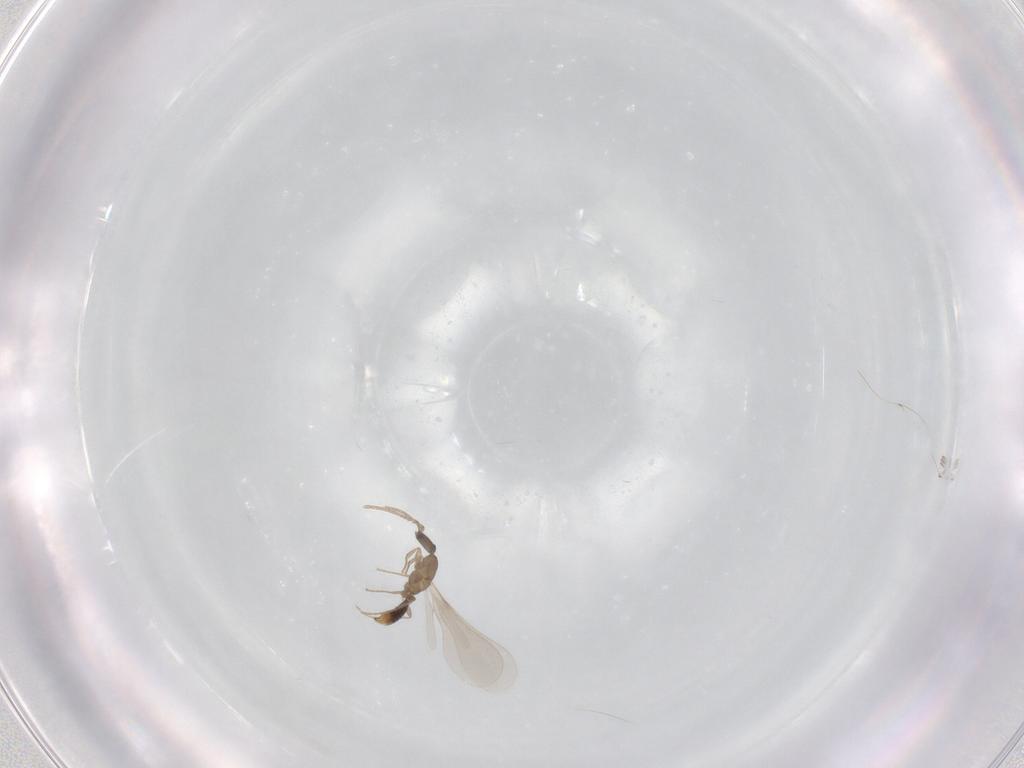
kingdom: Animalia
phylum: Arthropoda
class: Insecta
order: Hymenoptera
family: Formicidae
